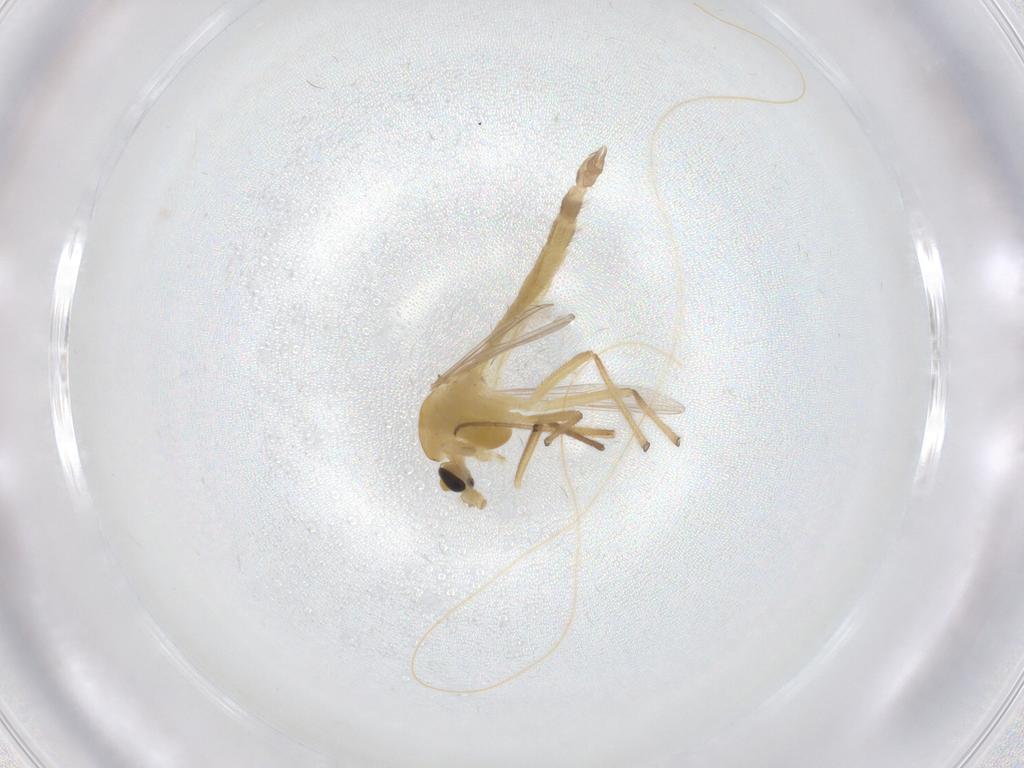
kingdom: Animalia
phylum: Arthropoda
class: Insecta
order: Diptera
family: Chironomidae
